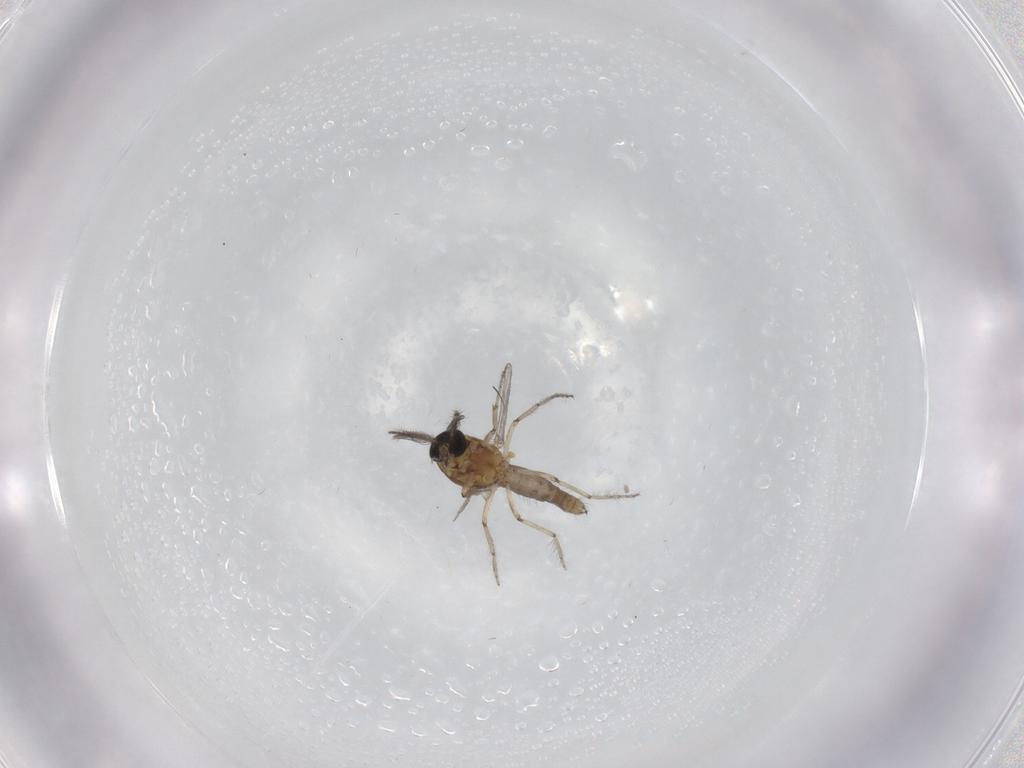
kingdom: Animalia
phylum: Arthropoda
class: Insecta
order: Diptera
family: Ceratopogonidae
